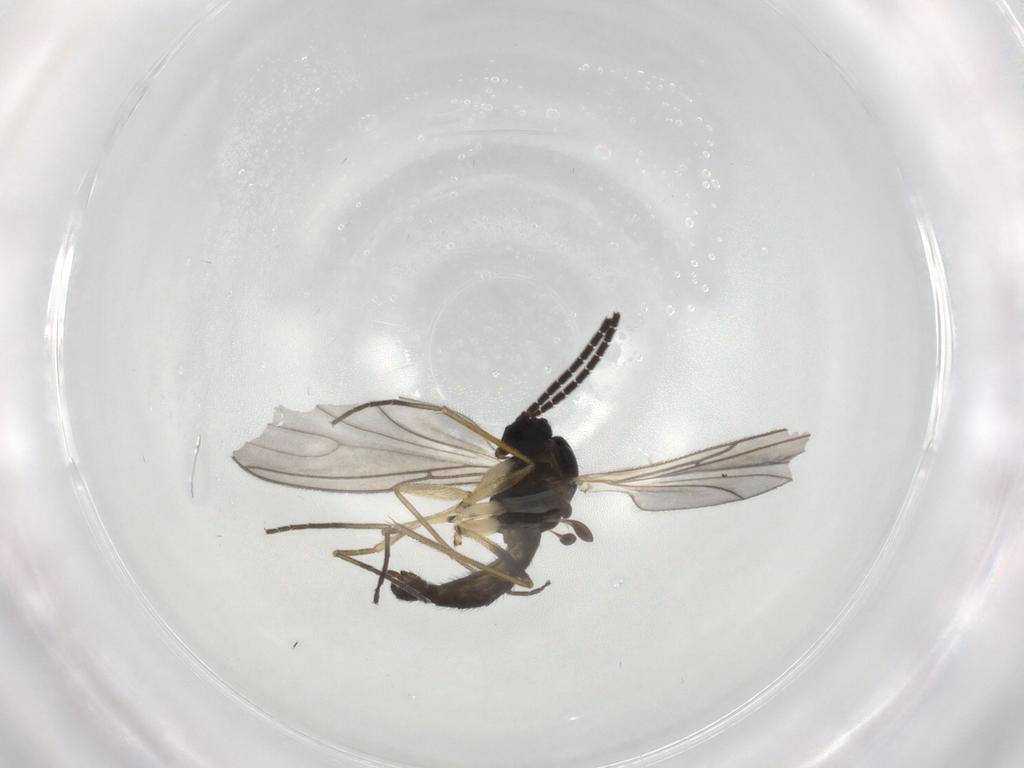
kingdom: Animalia
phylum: Arthropoda
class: Insecta
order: Diptera
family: Sciaridae
